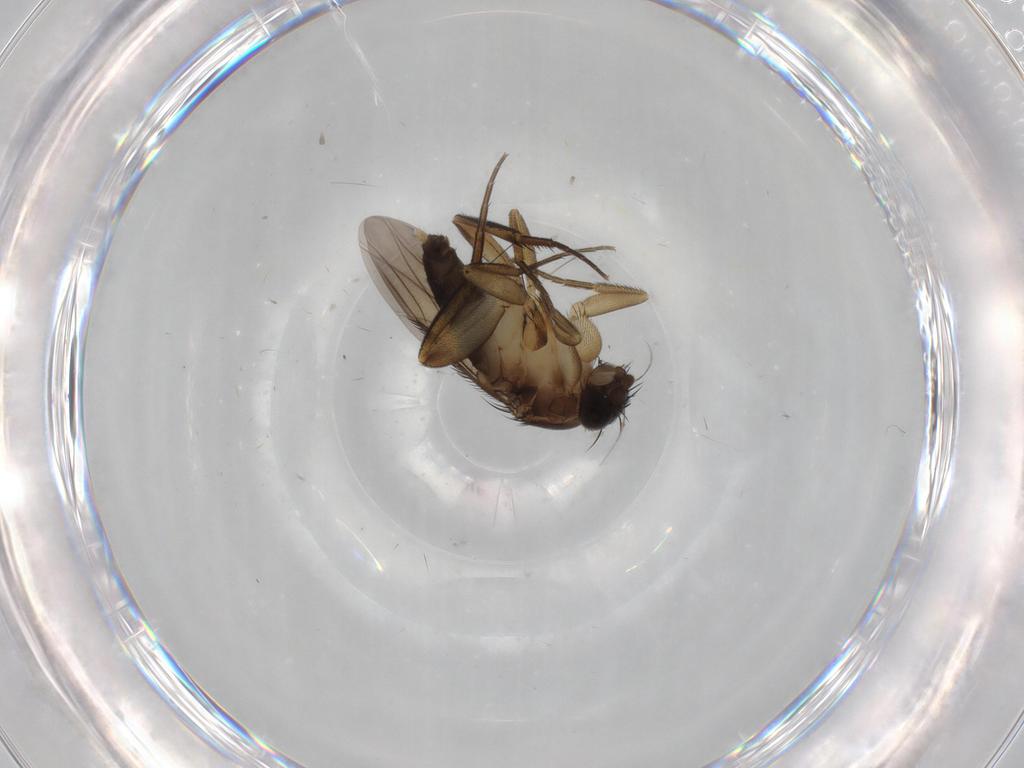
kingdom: Animalia
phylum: Arthropoda
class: Insecta
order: Diptera
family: Phoridae
